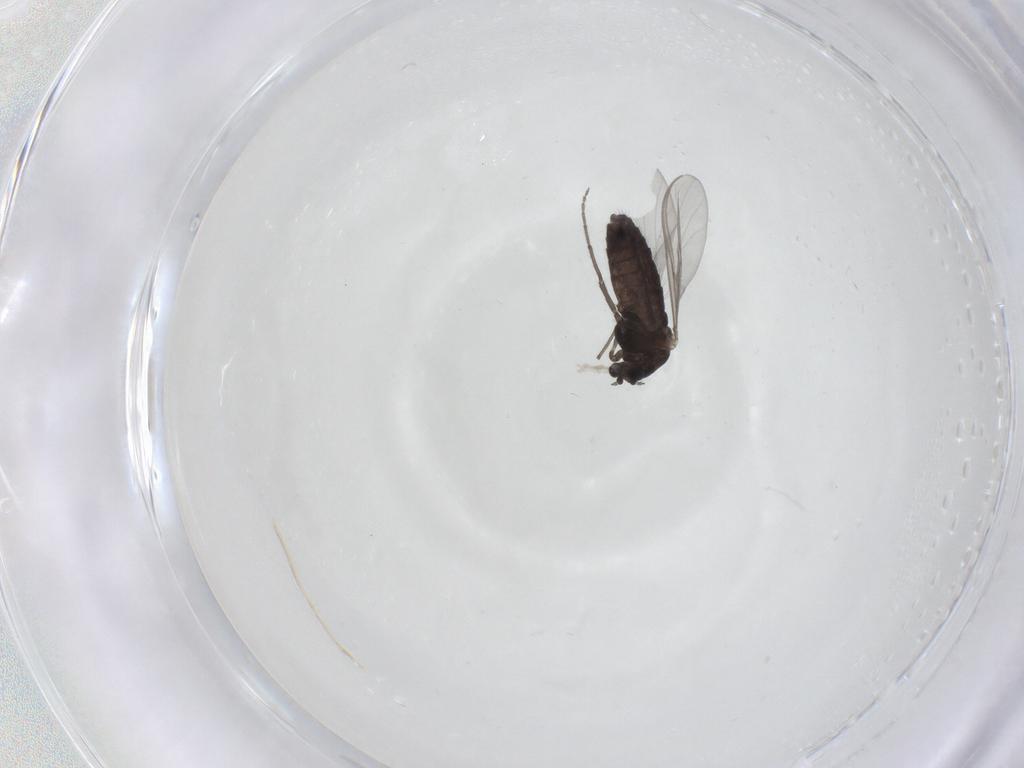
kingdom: Animalia
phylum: Arthropoda
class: Insecta
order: Diptera
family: Chironomidae
